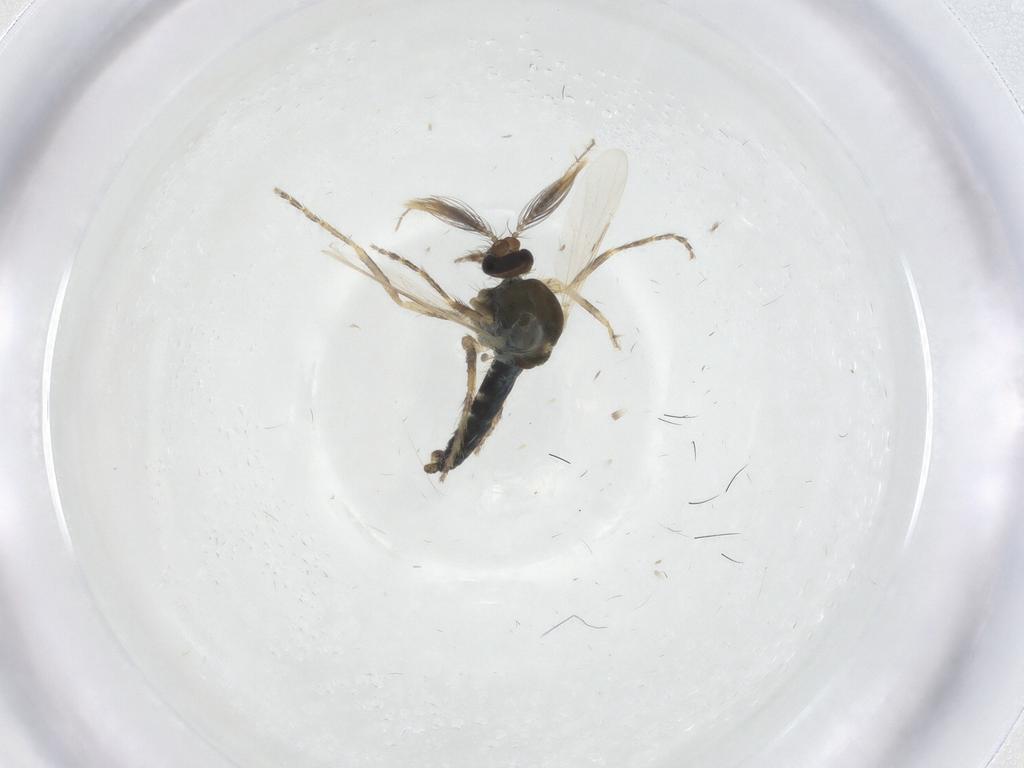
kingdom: Animalia
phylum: Arthropoda
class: Insecta
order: Diptera
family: Ceratopogonidae
